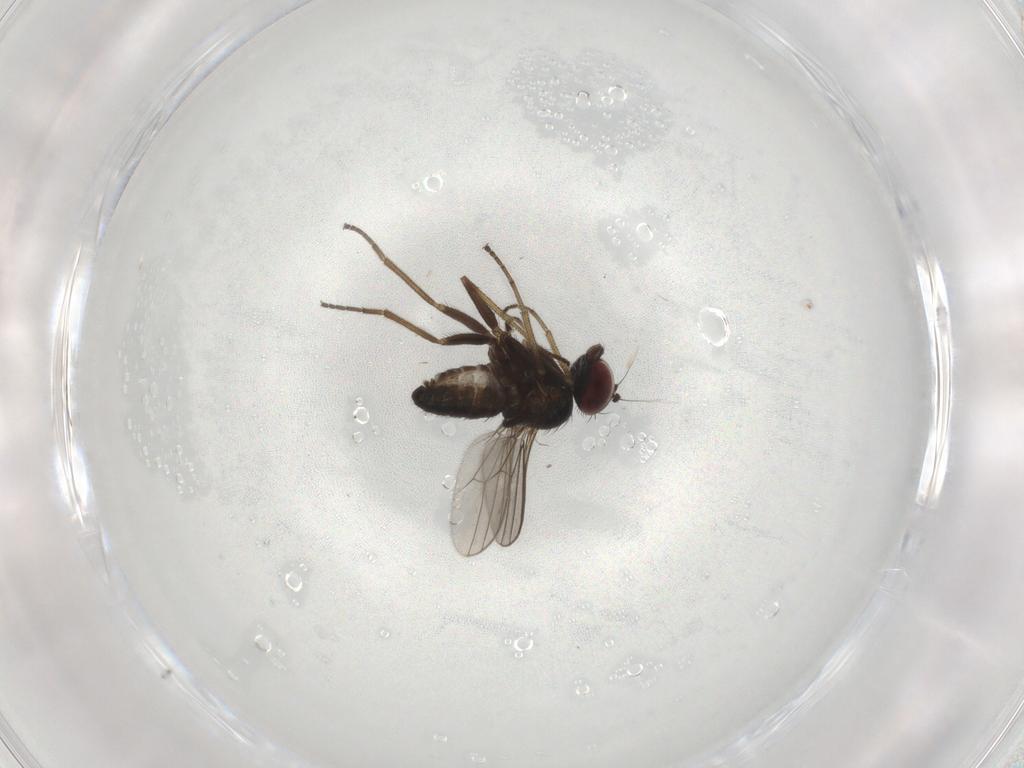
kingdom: Animalia
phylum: Arthropoda
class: Insecta
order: Diptera
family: Dolichopodidae
